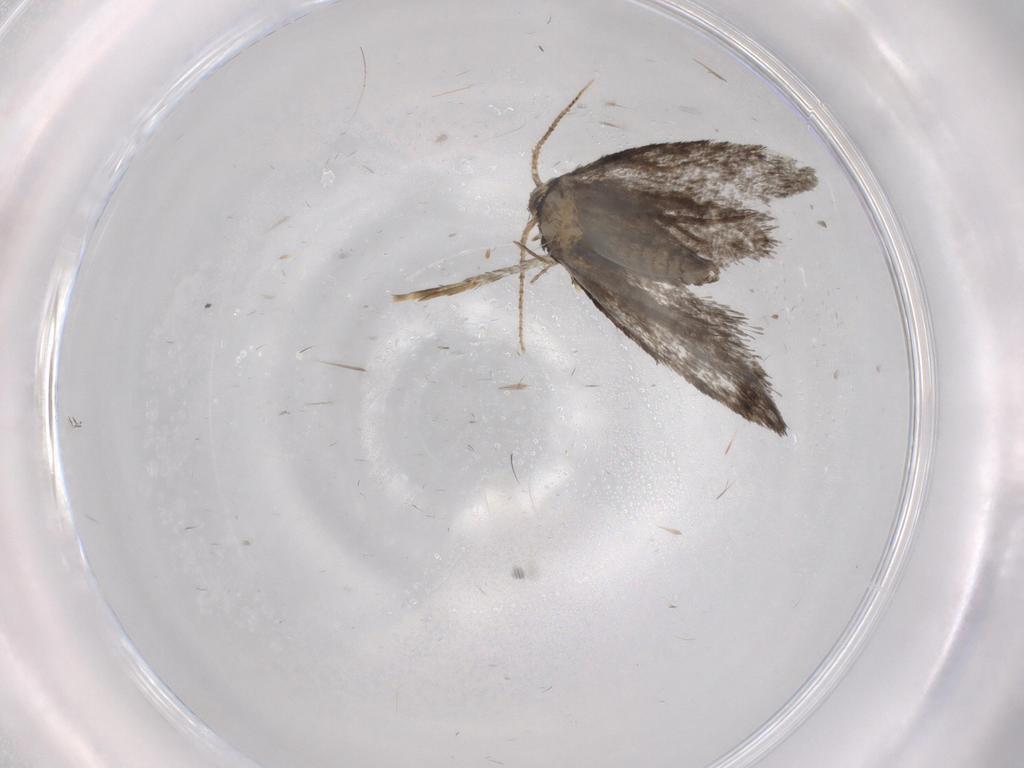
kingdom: Animalia
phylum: Arthropoda
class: Insecta
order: Lepidoptera
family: Psychidae
